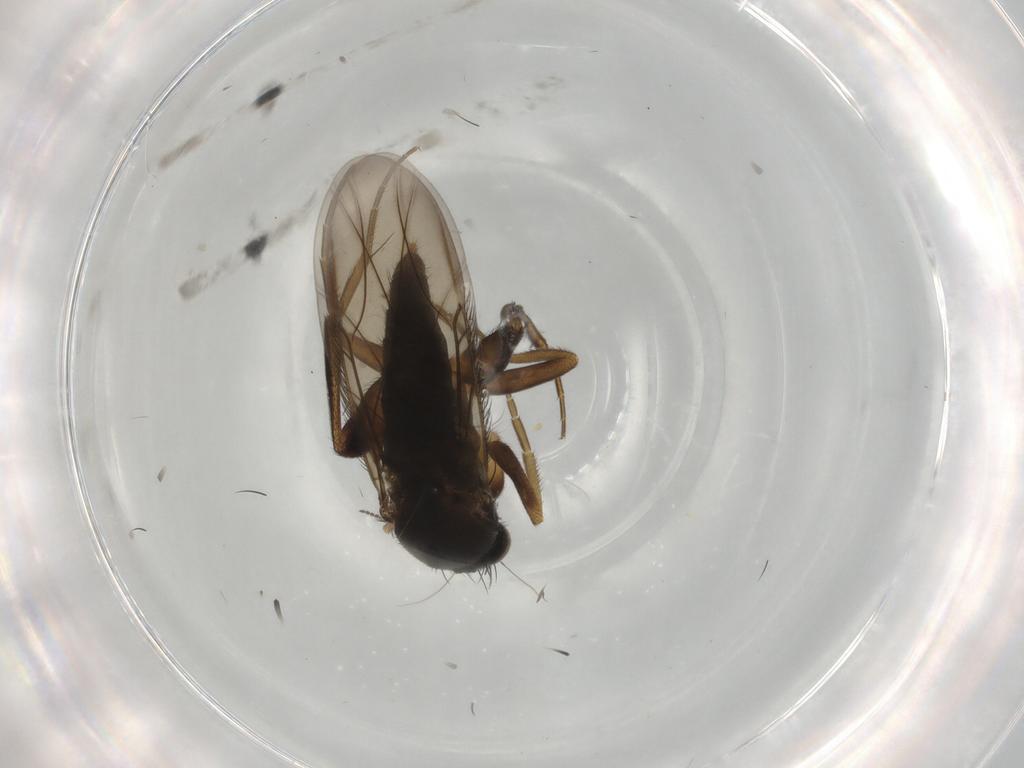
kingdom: Animalia
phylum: Arthropoda
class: Insecta
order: Diptera
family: Phoridae
